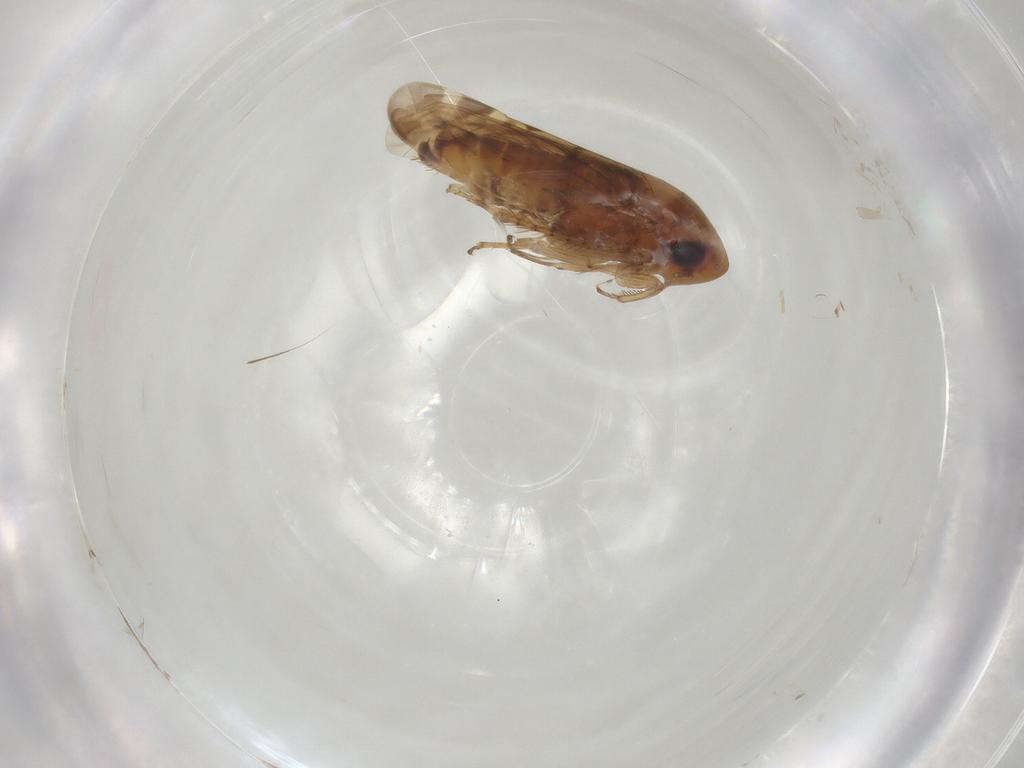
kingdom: Animalia
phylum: Arthropoda
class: Insecta
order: Hemiptera
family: Cicadellidae
